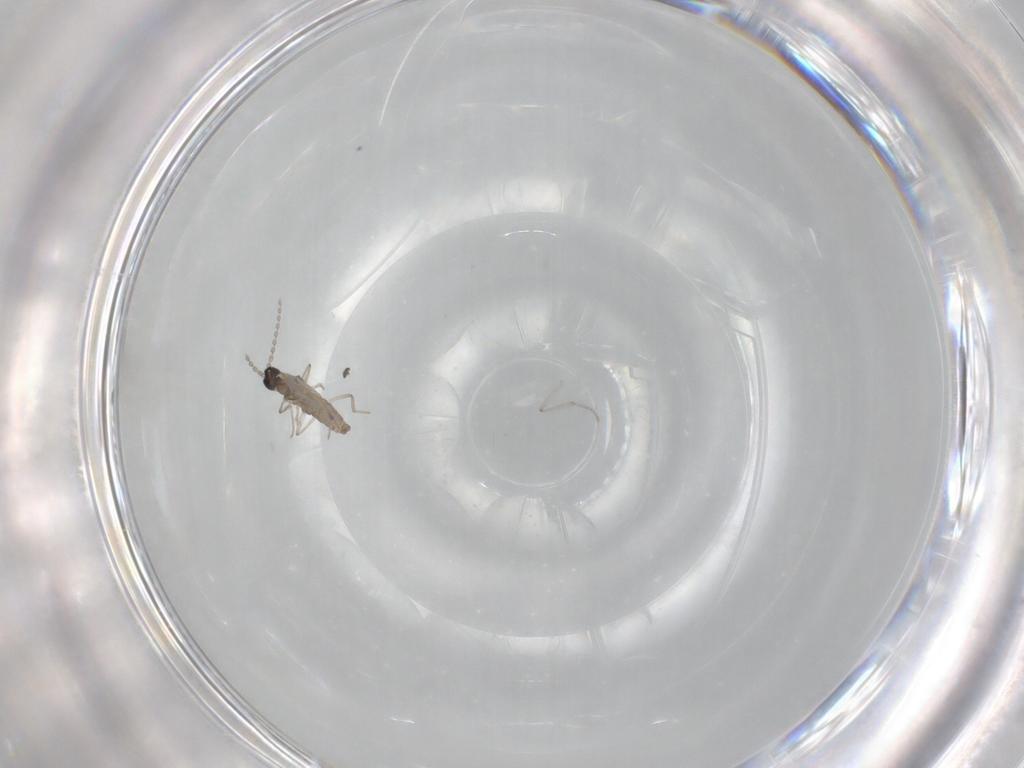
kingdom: Animalia
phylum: Arthropoda
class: Insecta
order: Diptera
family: Cecidomyiidae
